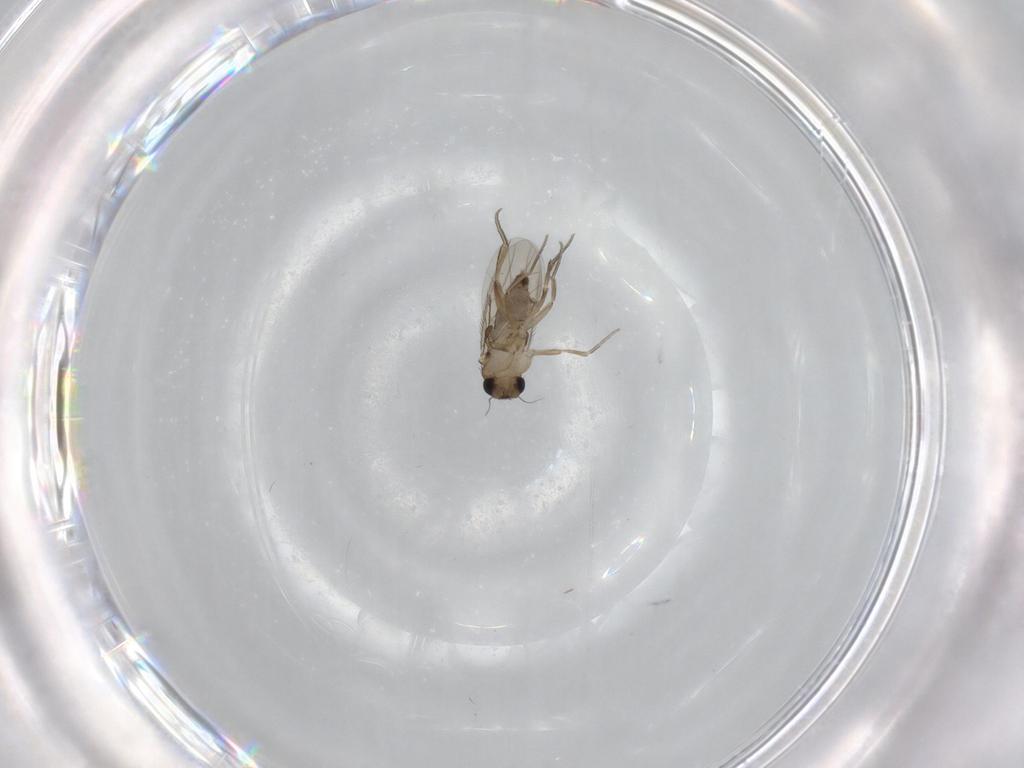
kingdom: Animalia
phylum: Arthropoda
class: Insecta
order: Diptera
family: Phoridae
